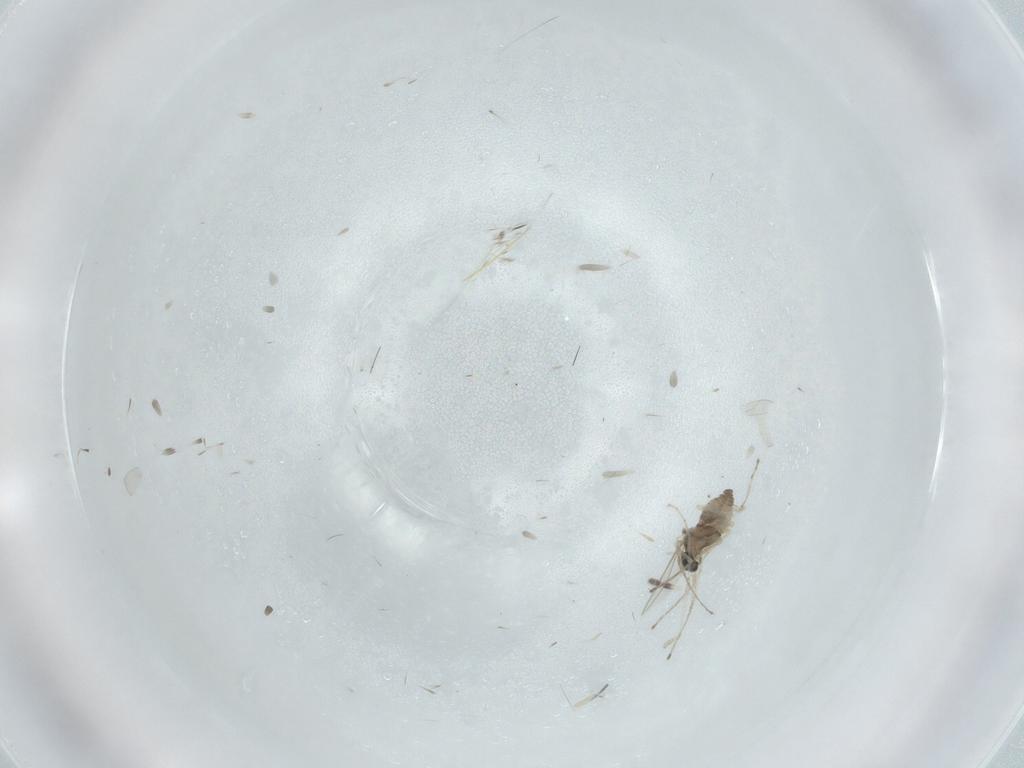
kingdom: Animalia
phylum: Arthropoda
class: Insecta
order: Diptera
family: Cecidomyiidae
